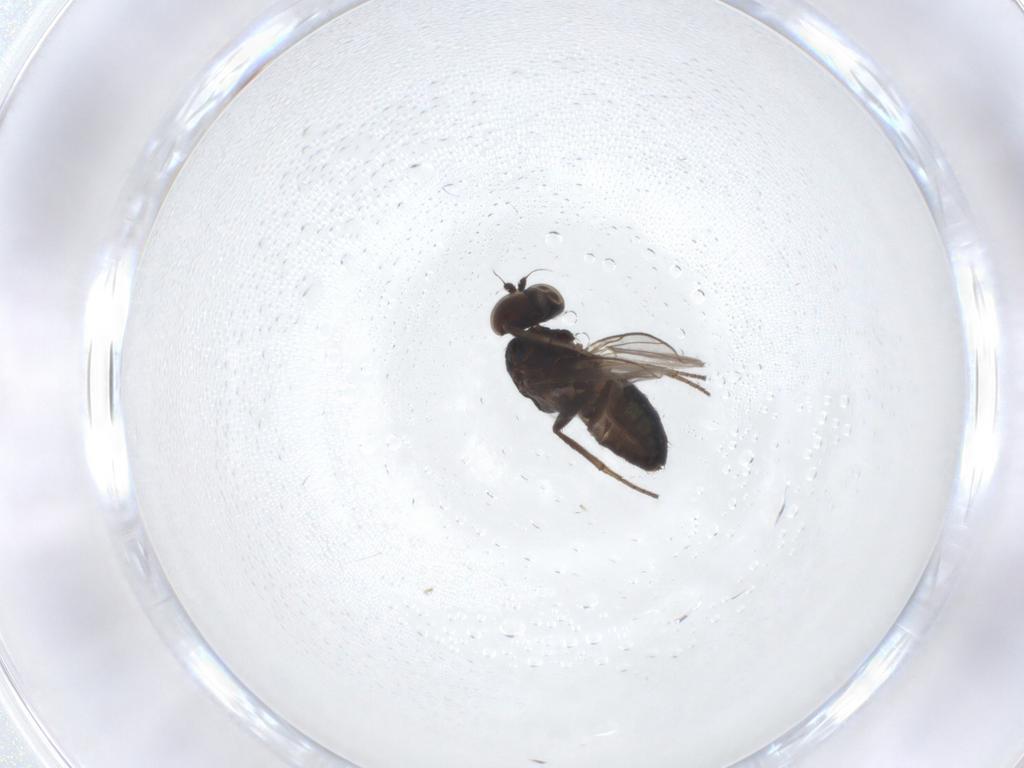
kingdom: Animalia
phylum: Arthropoda
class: Insecta
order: Diptera
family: Dolichopodidae
